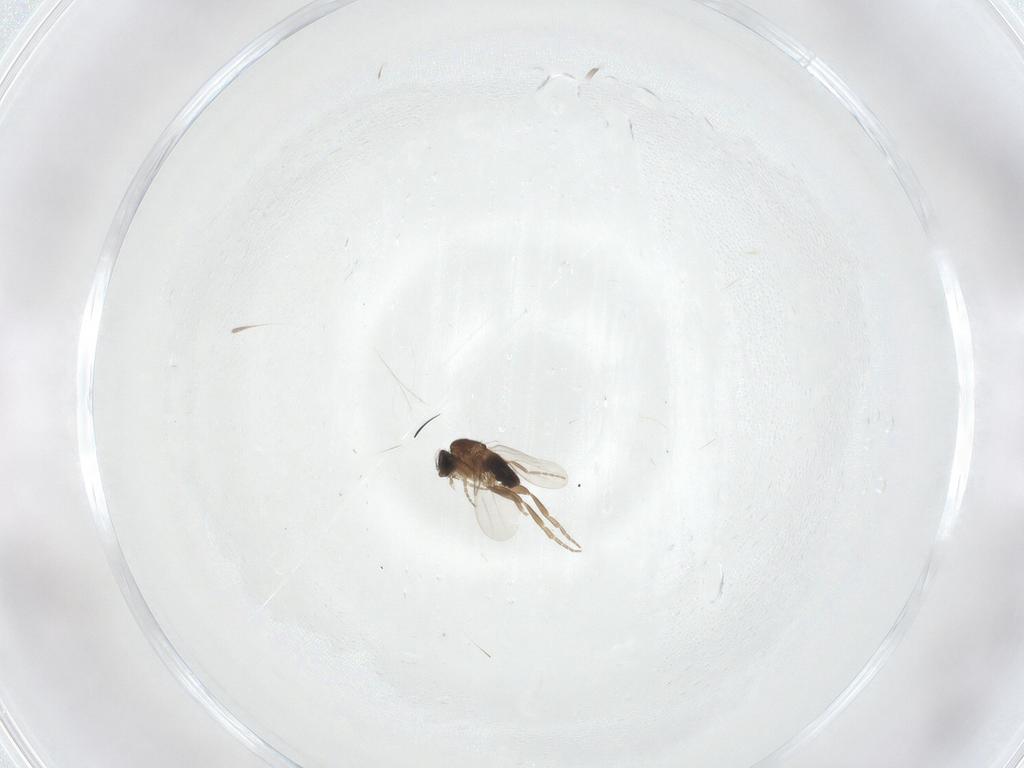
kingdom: Animalia
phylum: Arthropoda
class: Insecta
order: Diptera
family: Phoridae
